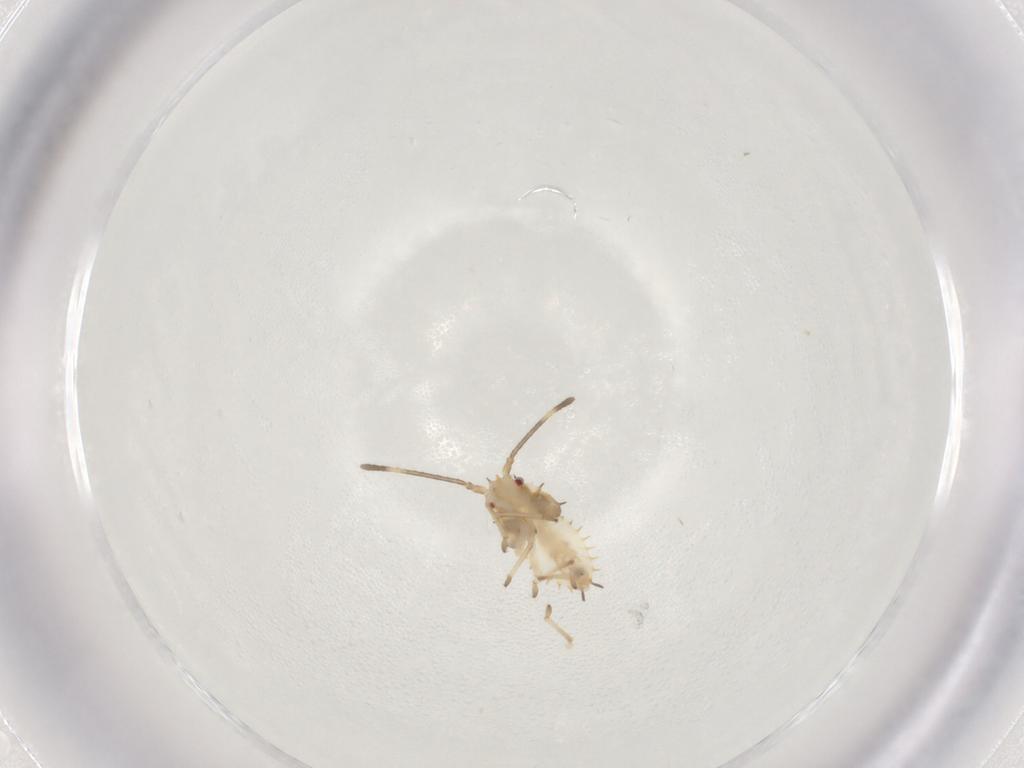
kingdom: Animalia
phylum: Arthropoda
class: Insecta
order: Hemiptera
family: Tingidae
